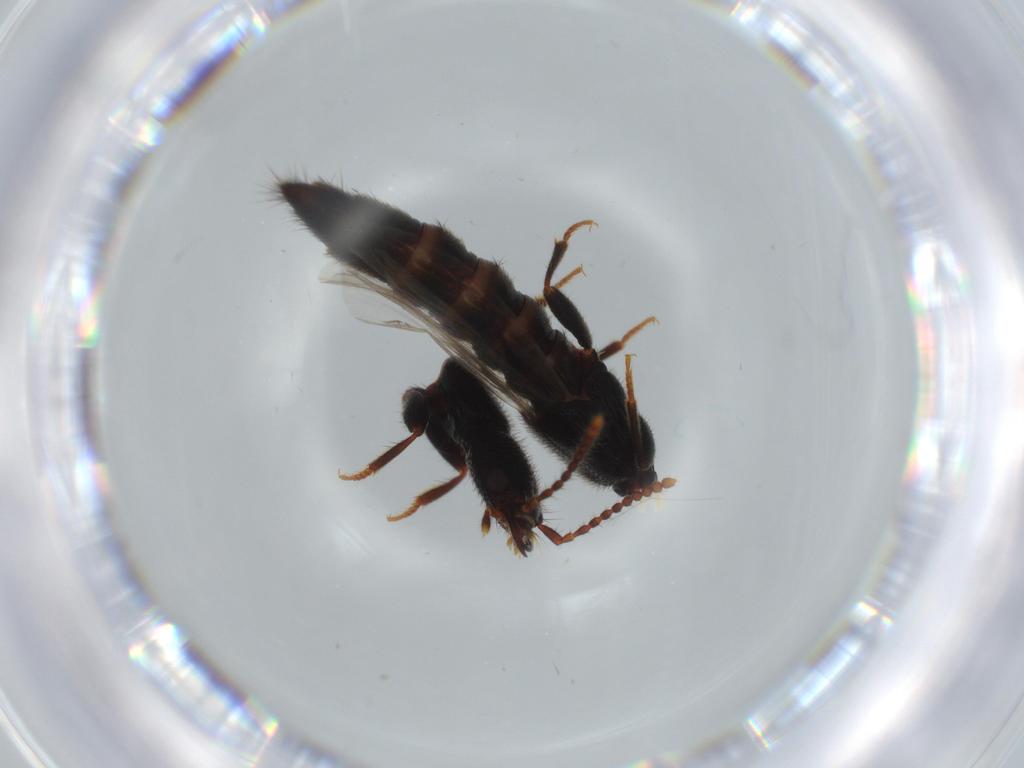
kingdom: Animalia
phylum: Arthropoda
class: Insecta
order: Coleoptera
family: Staphylinidae
